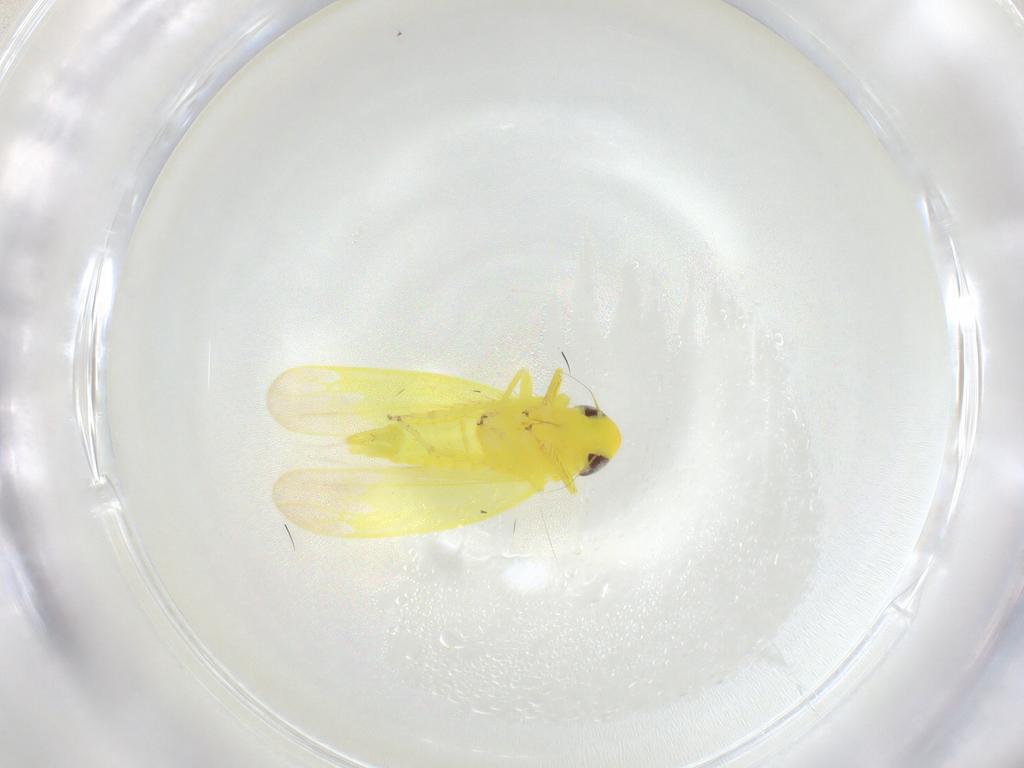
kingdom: Animalia
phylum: Arthropoda
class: Insecta
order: Hemiptera
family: Cicadellidae
